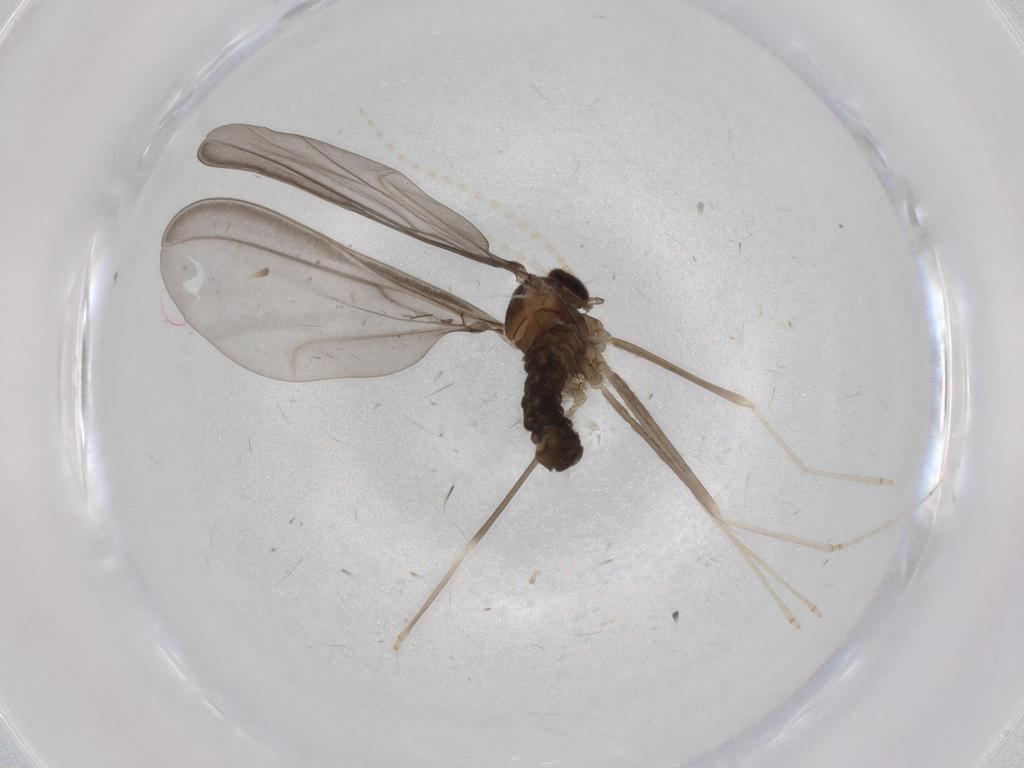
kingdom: Animalia
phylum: Arthropoda
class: Insecta
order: Diptera
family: Cecidomyiidae
